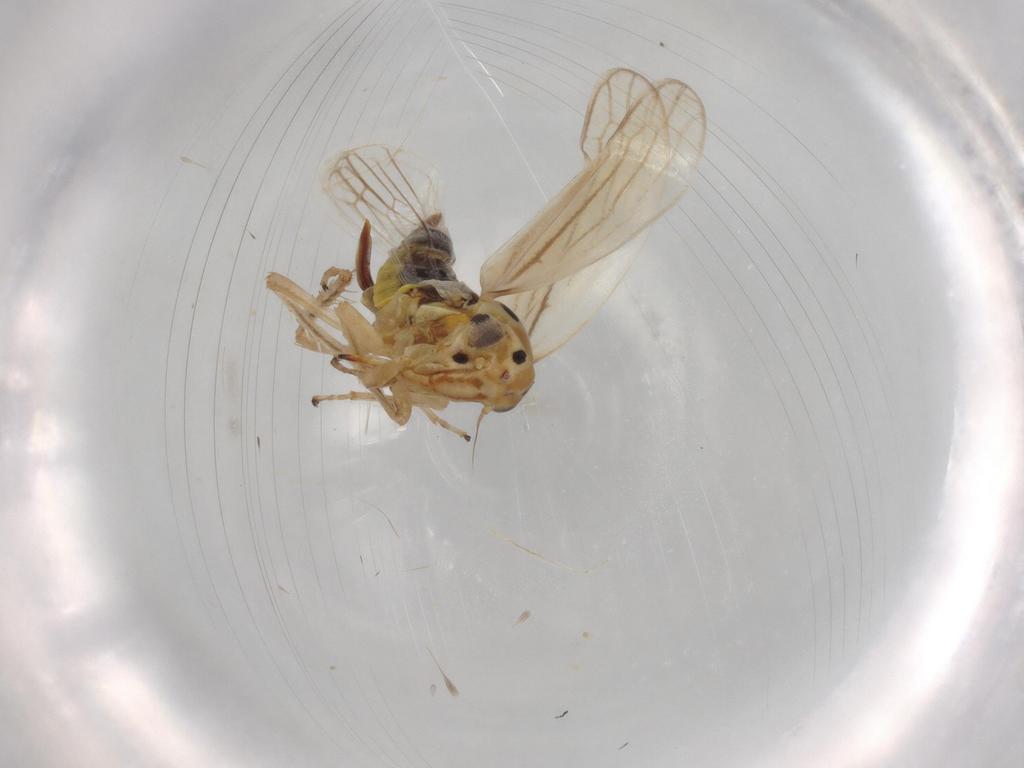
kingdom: Animalia
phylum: Arthropoda
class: Insecta
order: Hemiptera
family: Cicadellidae
